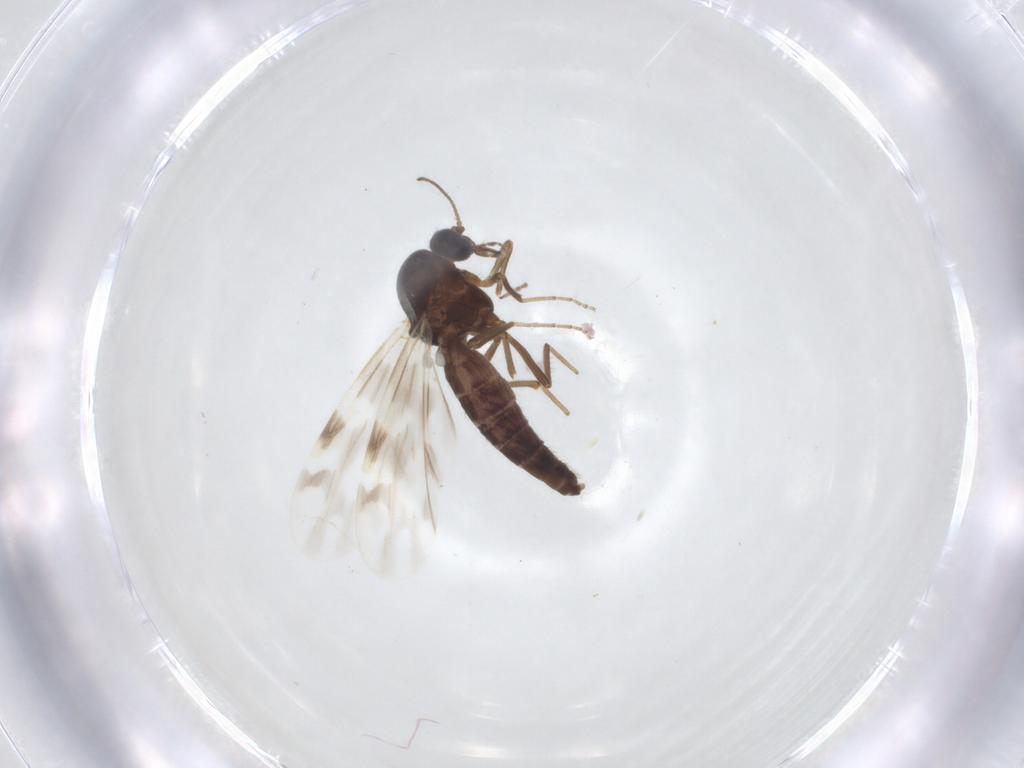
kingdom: Animalia
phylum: Arthropoda
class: Insecta
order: Diptera
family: Ceratopogonidae
